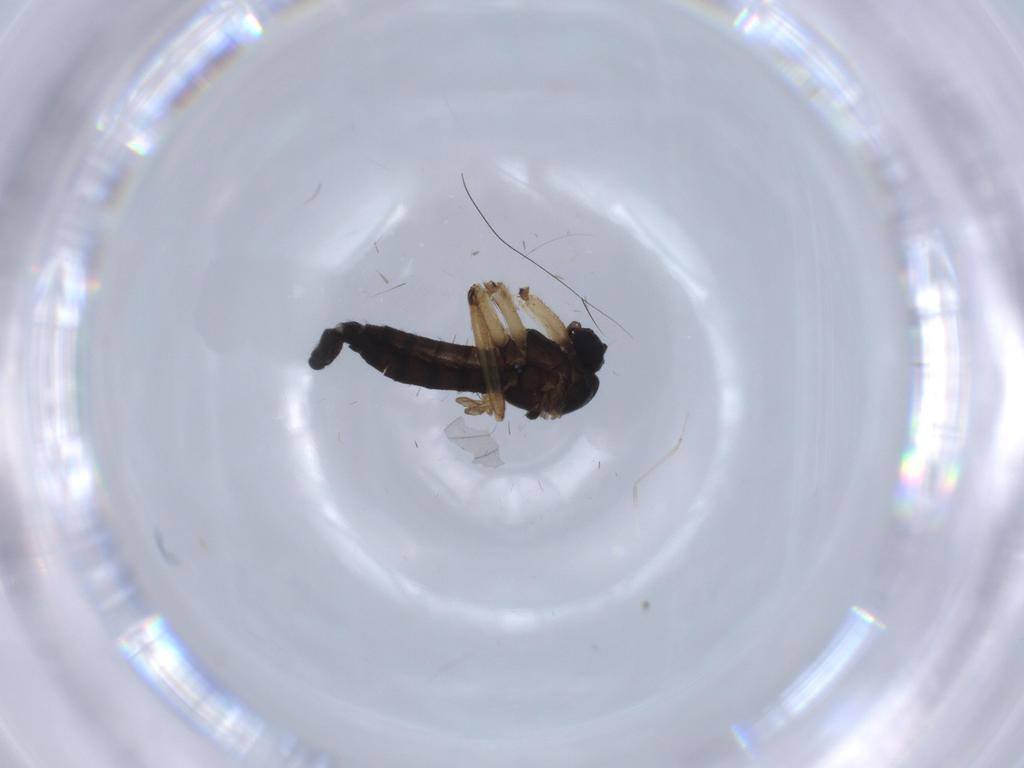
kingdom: Animalia
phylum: Arthropoda
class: Insecta
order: Diptera
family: Sciaridae
